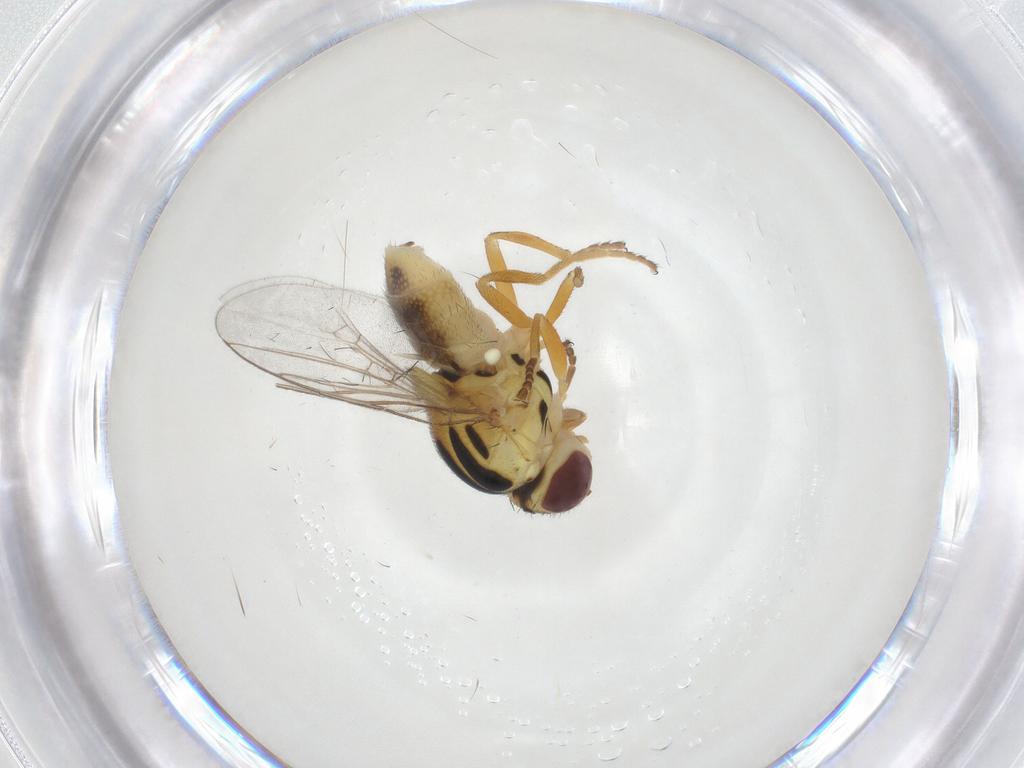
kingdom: Animalia
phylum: Arthropoda
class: Insecta
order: Diptera
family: Chloropidae
